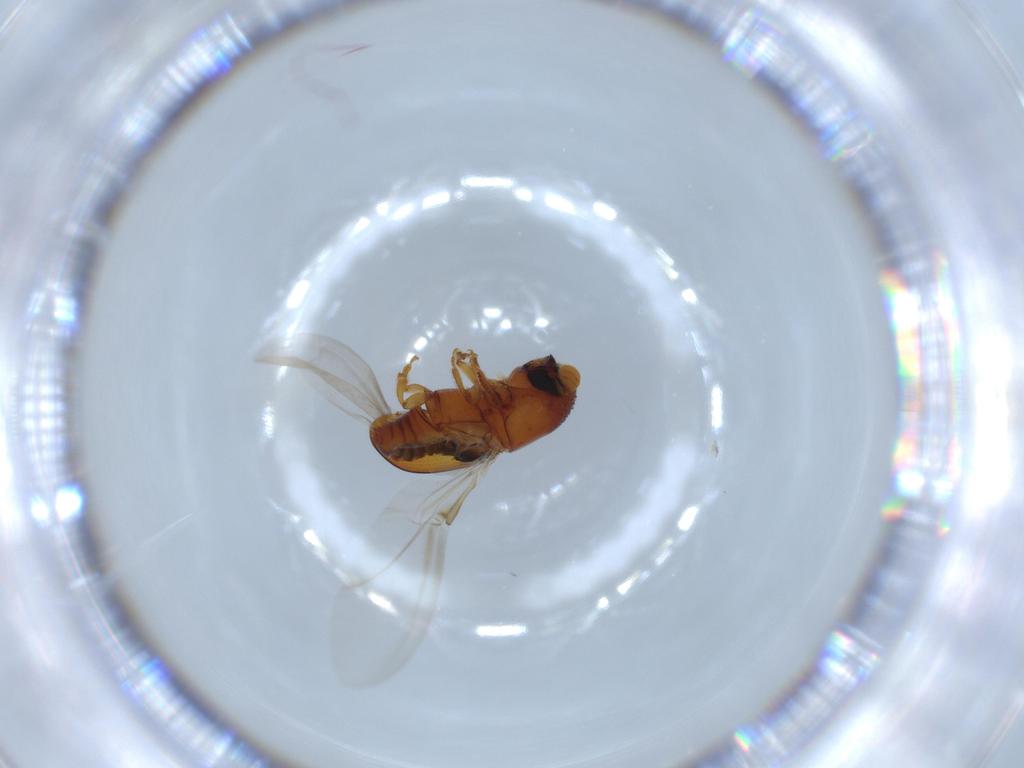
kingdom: Animalia
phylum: Arthropoda
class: Insecta
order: Coleoptera
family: Curculionidae
